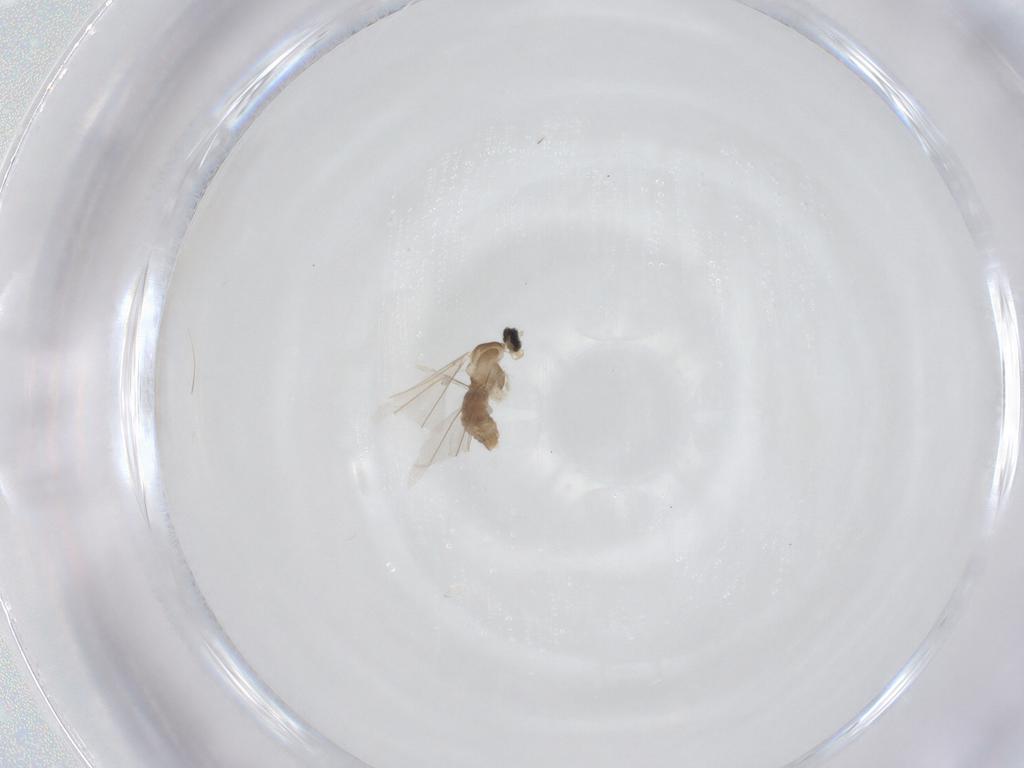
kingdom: Animalia
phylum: Arthropoda
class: Insecta
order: Diptera
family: Cecidomyiidae
